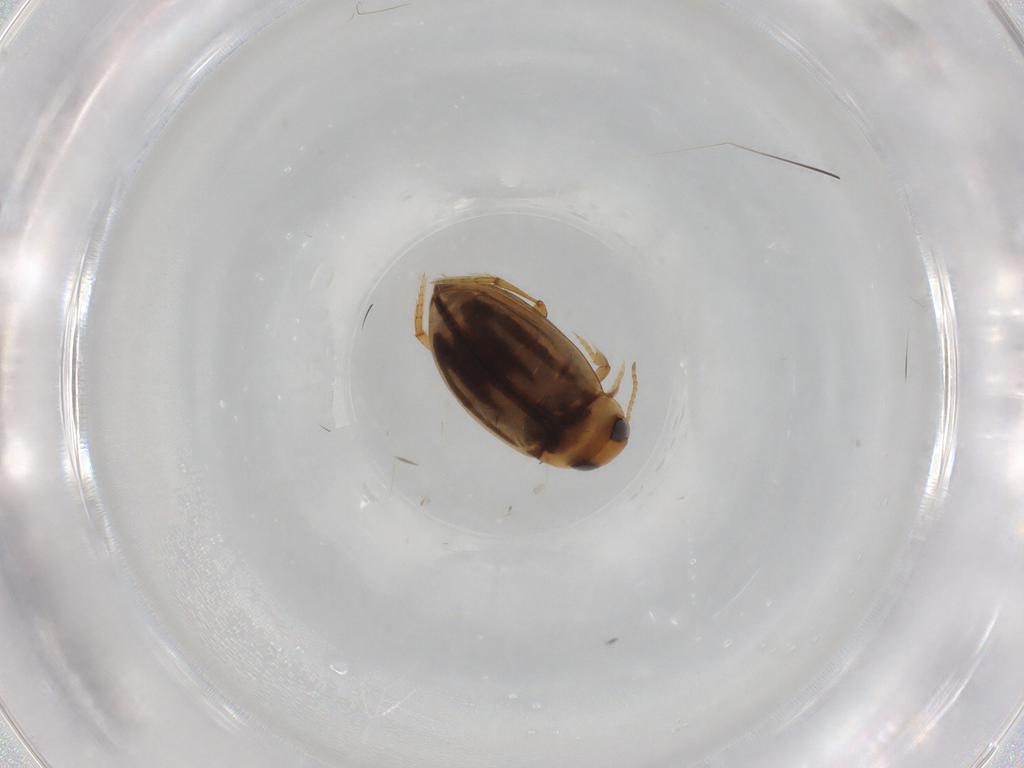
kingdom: Animalia
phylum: Arthropoda
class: Insecta
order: Coleoptera
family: Dytiscidae
